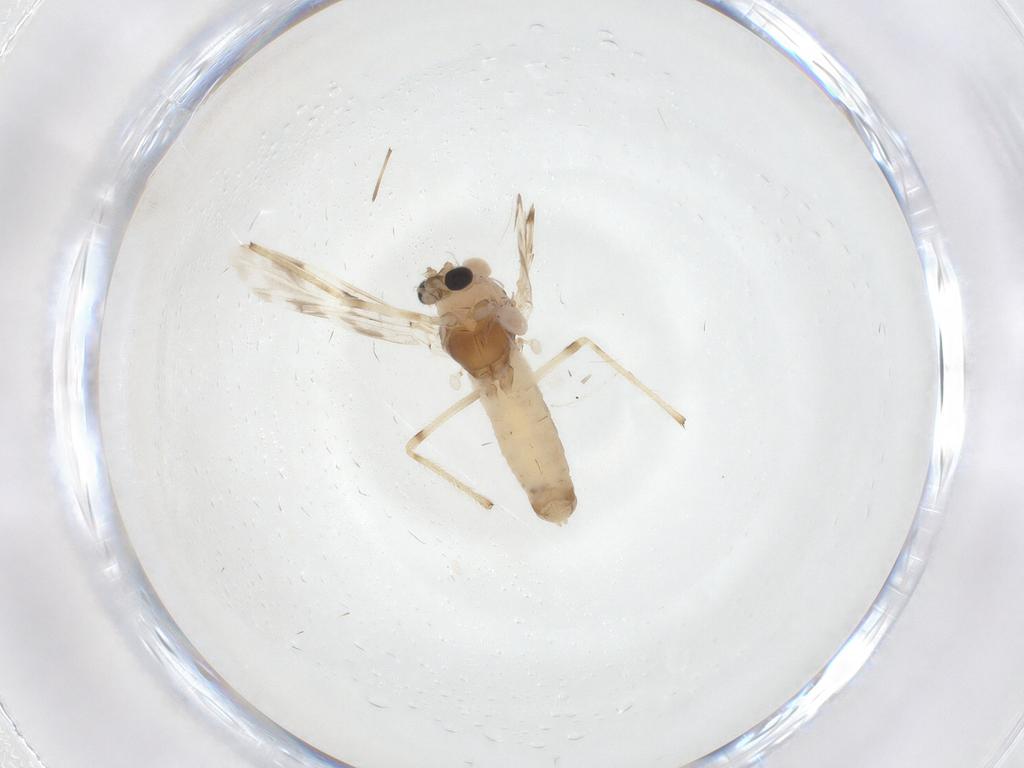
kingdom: Animalia
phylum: Arthropoda
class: Insecta
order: Diptera
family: Chironomidae
